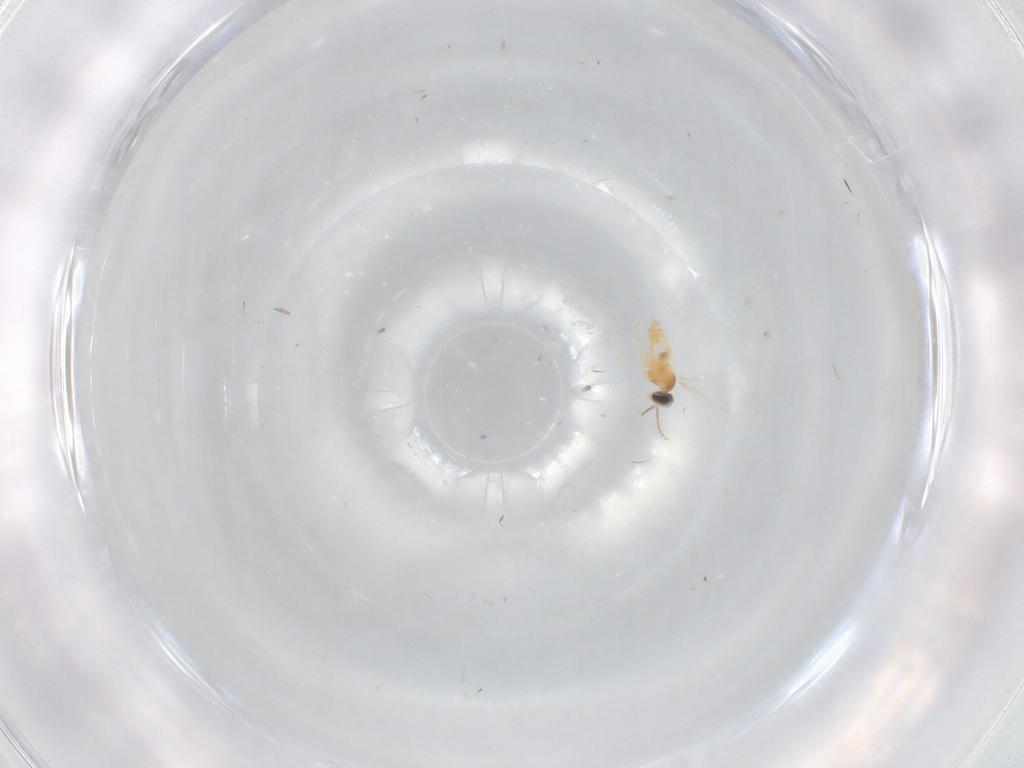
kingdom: Animalia
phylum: Arthropoda
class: Insecta
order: Diptera
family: Cecidomyiidae
